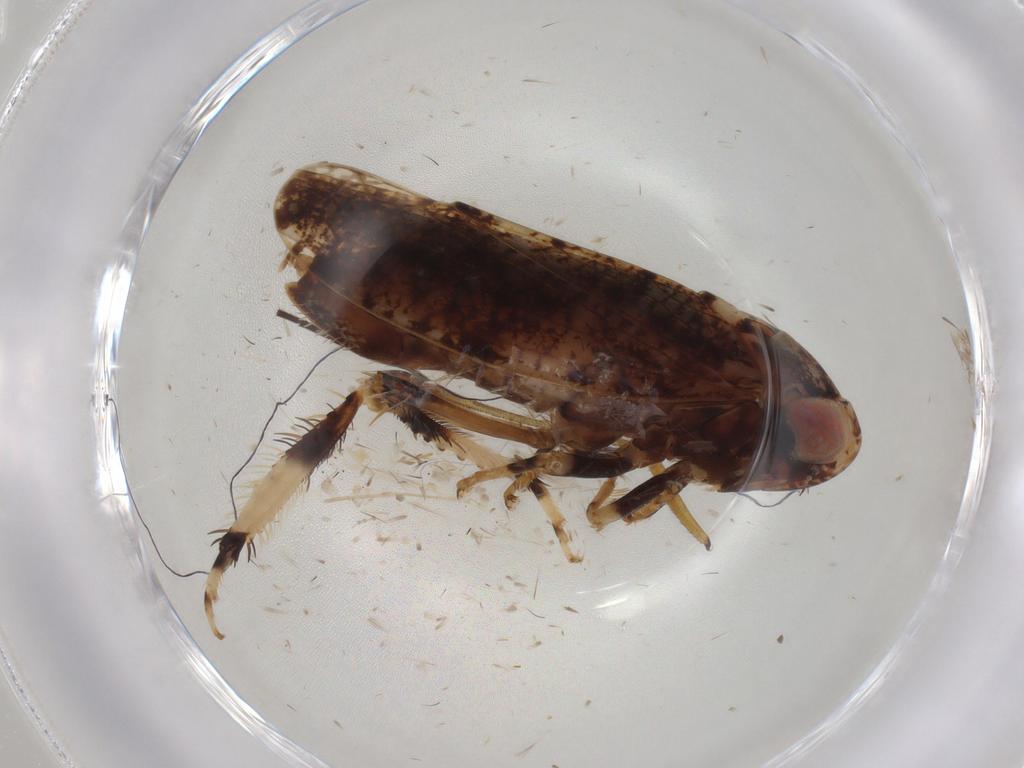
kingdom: Animalia
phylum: Arthropoda
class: Insecta
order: Hemiptera
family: Cicadellidae
